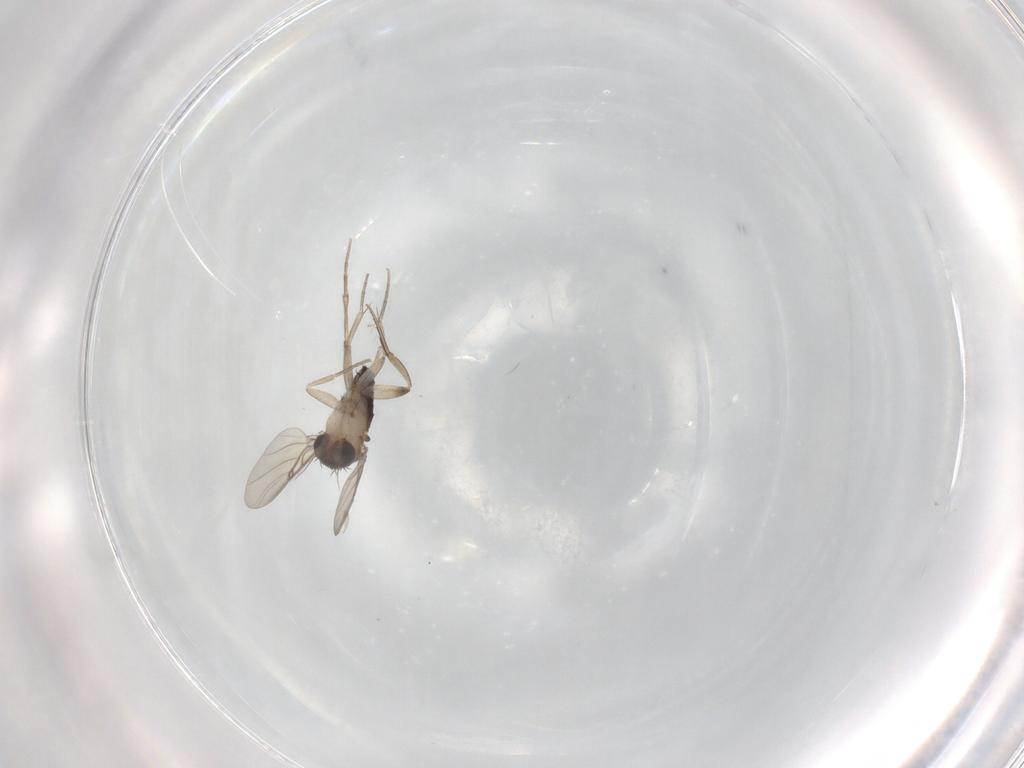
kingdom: Animalia
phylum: Arthropoda
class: Insecta
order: Diptera
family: Phoridae
